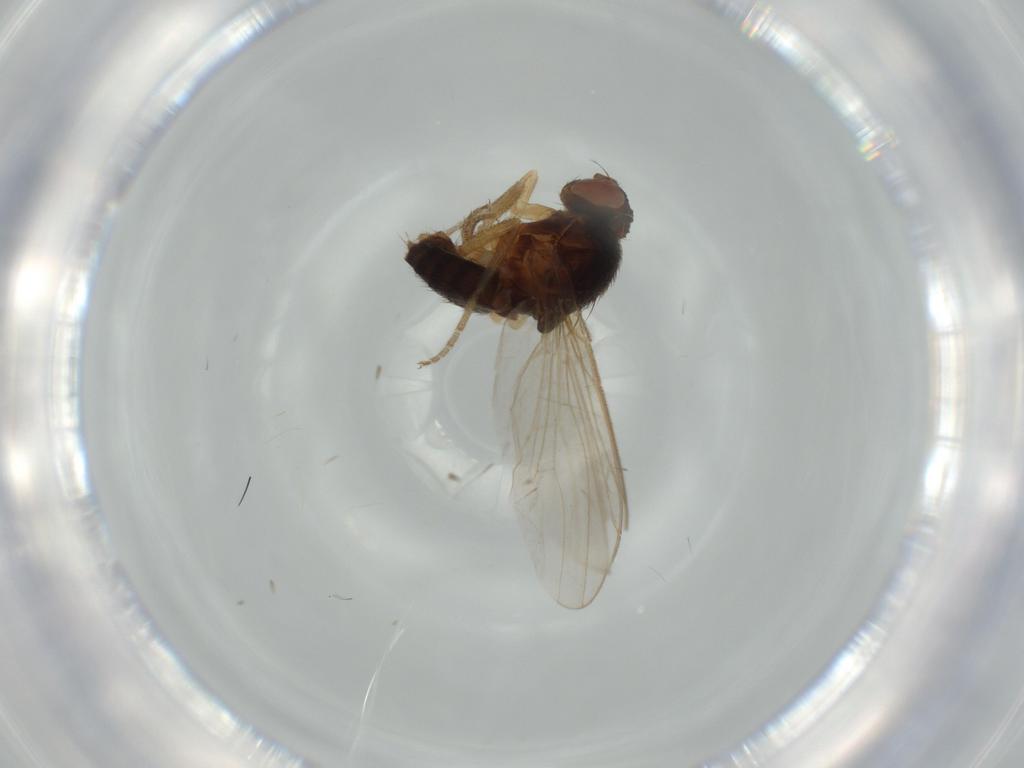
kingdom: Animalia
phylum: Arthropoda
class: Insecta
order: Diptera
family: Drosophilidae
